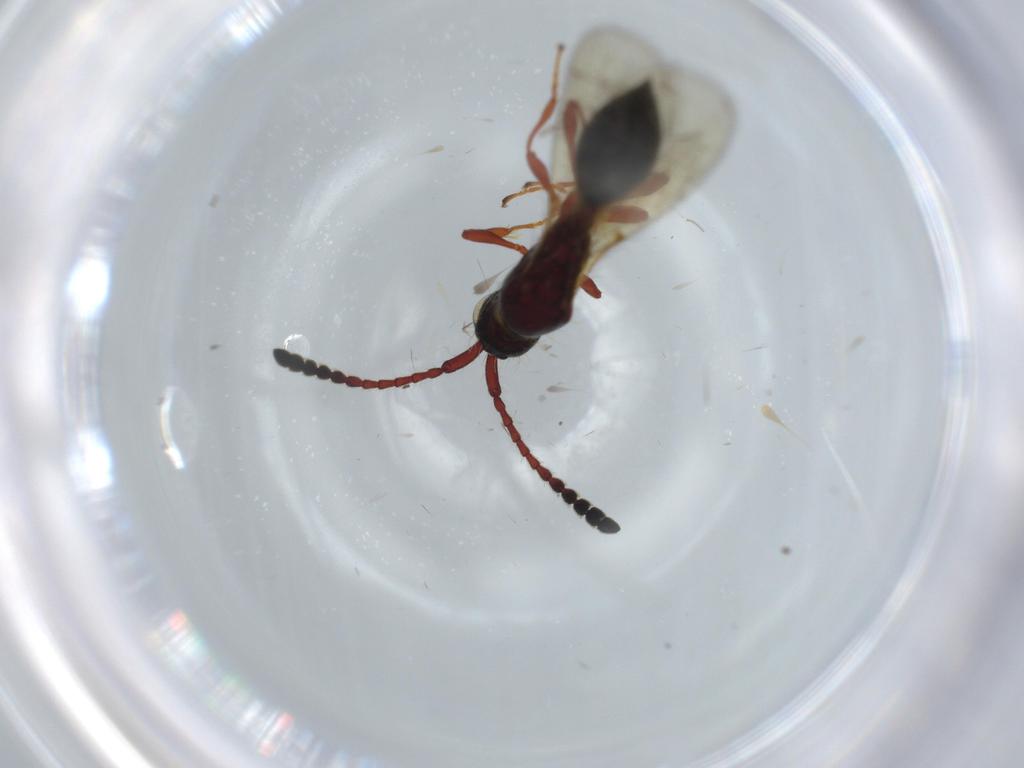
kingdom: Animalia
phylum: Arthropoda
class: Insecta
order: Hymenoptera
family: Diapriidae
